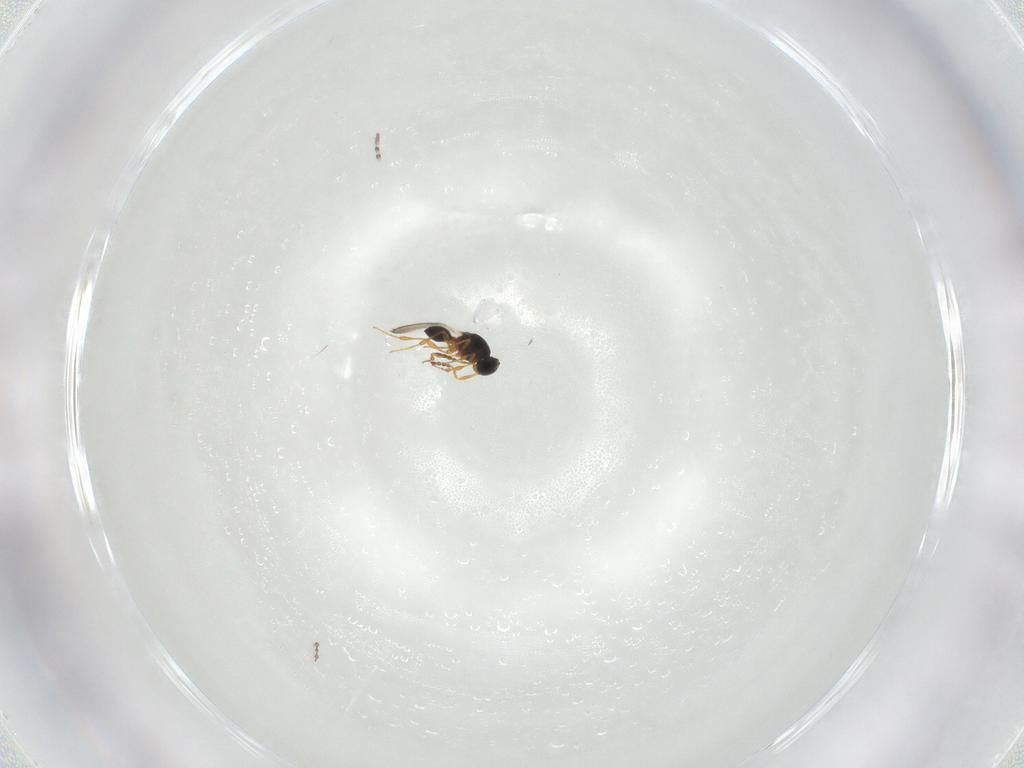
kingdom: Animalia
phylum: Arthropoda
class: Insecta
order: Hymenoptera
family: Platygastridae
